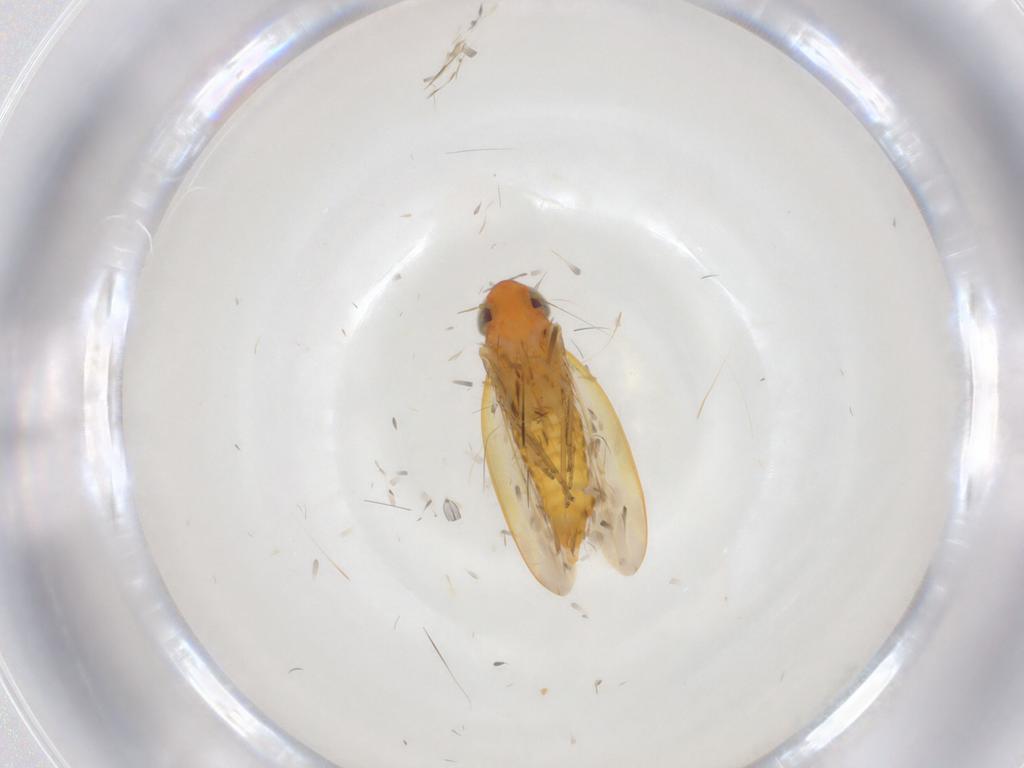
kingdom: Animalia
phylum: Arthropoda
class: Insecta
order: Hemiptera
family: Cicadellidae
